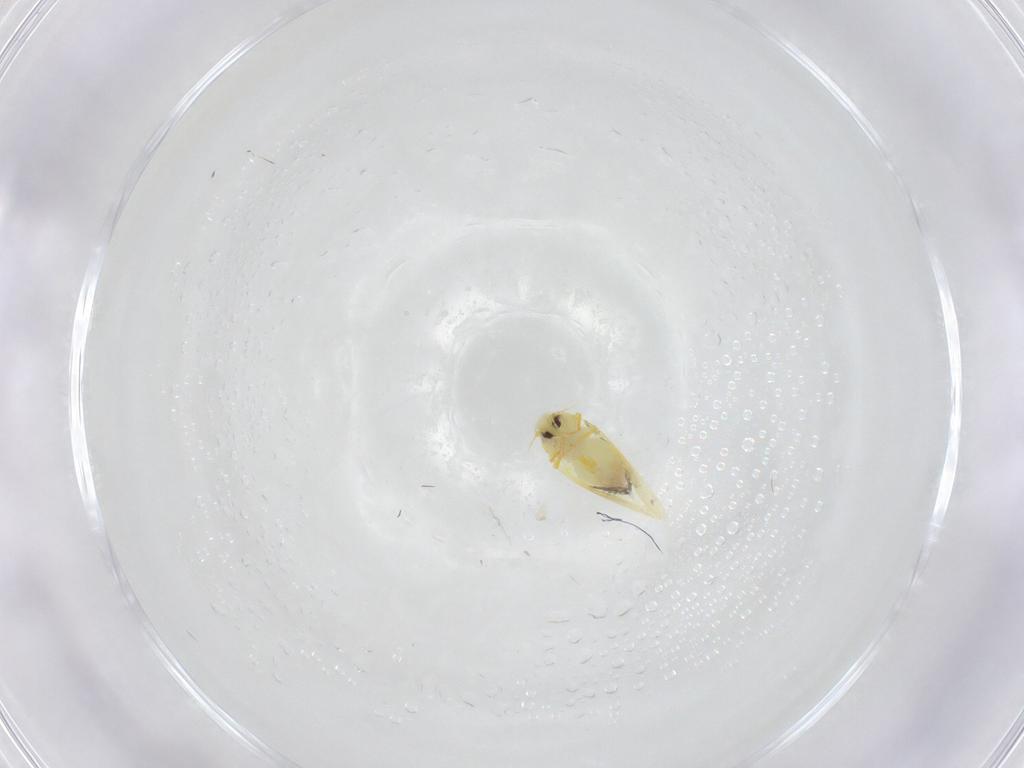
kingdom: Animalia
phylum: Arthropoda
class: Insecta
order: Hemiptera
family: Aleyrodidae
